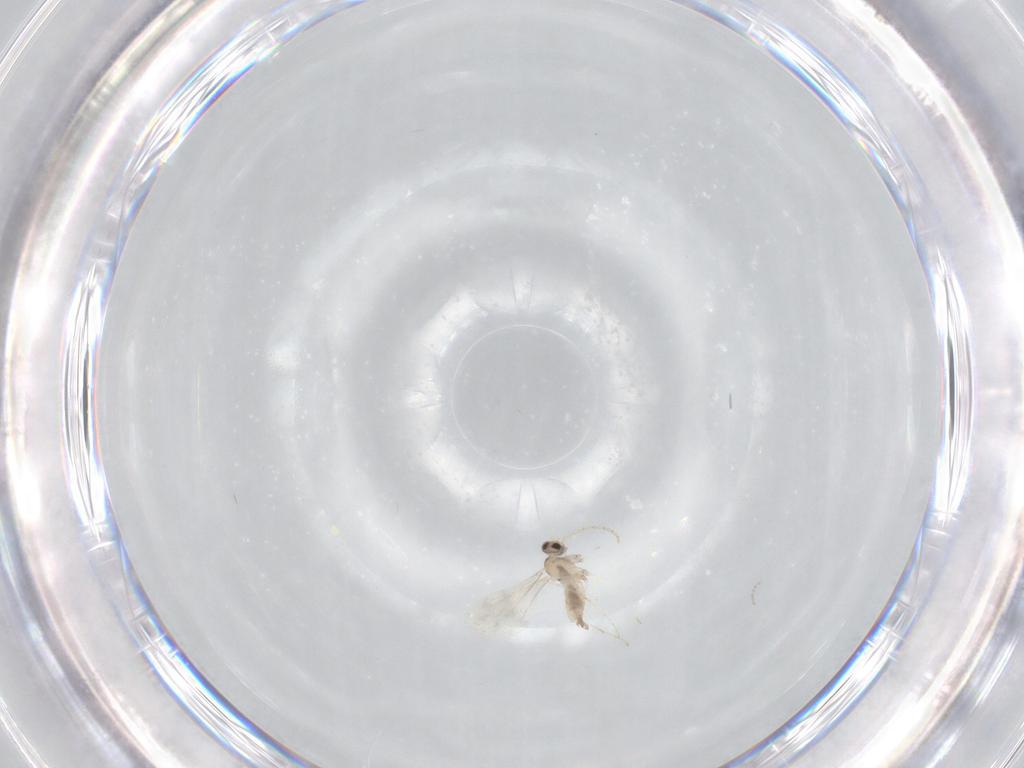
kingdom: Animalia
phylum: Arthropoda
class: Insecta
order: Diptera
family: Cecidomyiidae
